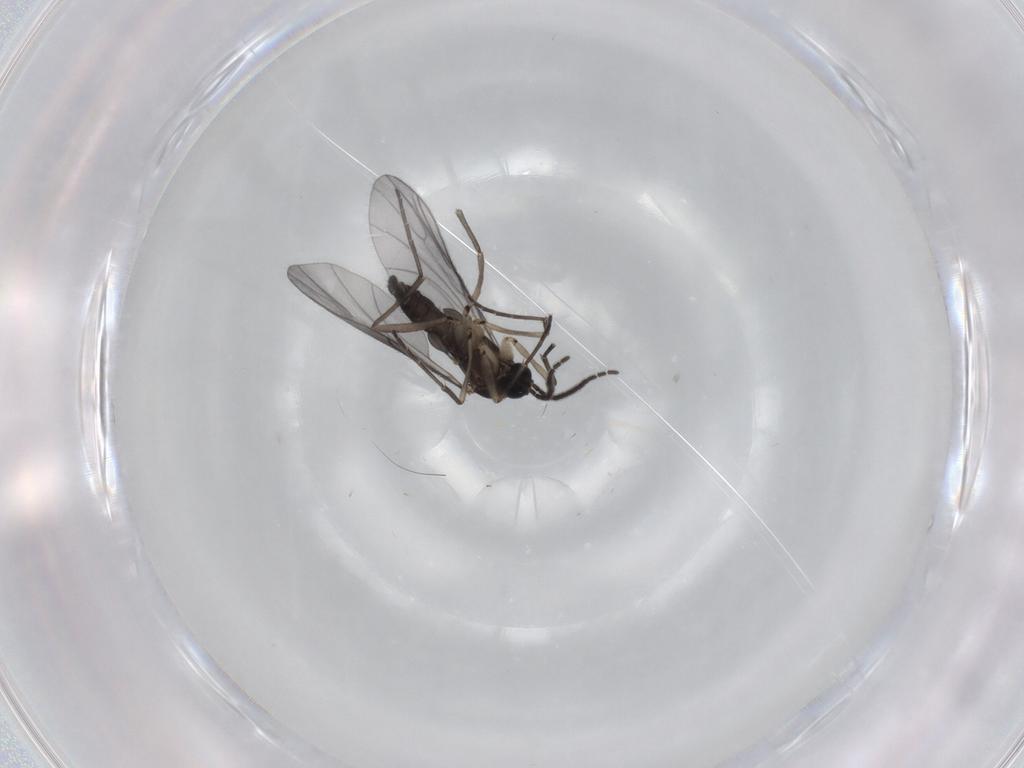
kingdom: Animalia
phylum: Arthropoda
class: Insecta
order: Diptera
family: Sciaridae
